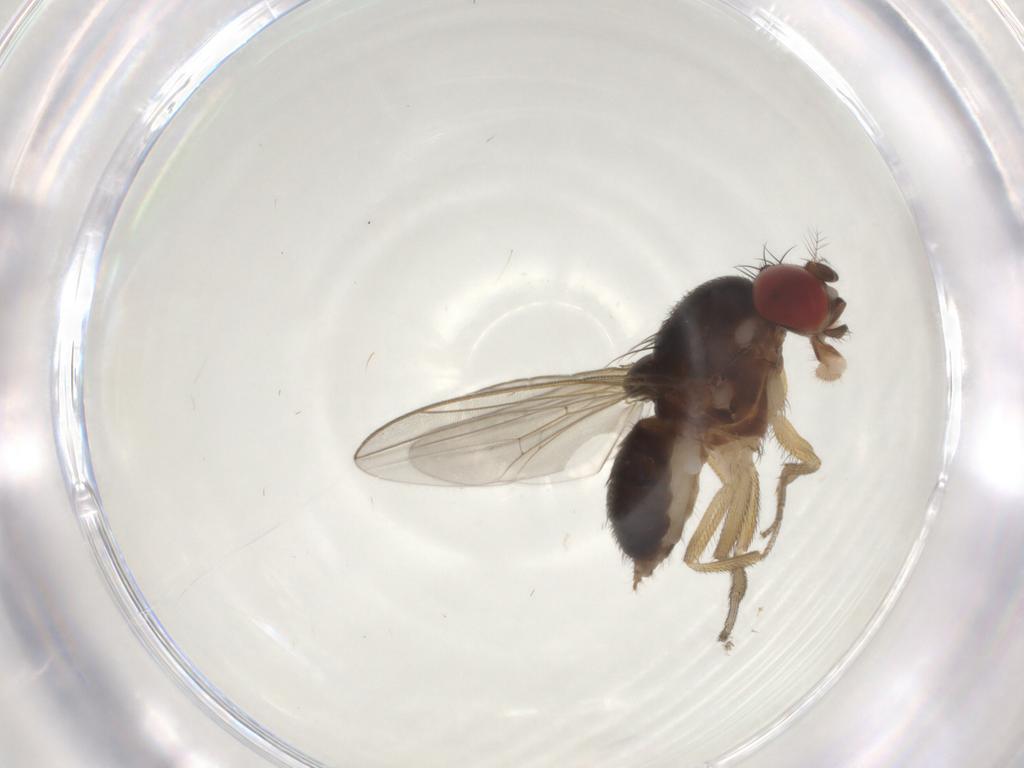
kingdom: Animalia
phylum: Arthropoda
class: Insecta
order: Diptera
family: Drosophilidae
